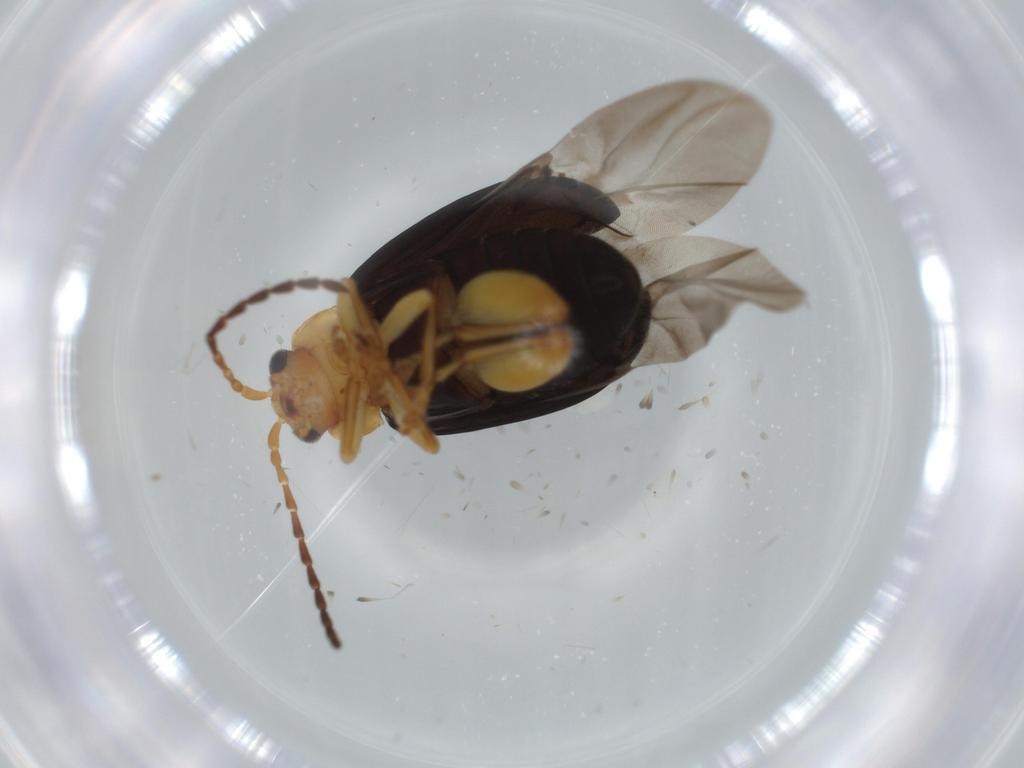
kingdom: Animalia
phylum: Arthropoda
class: Insecta
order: Coleoptera
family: Chrysomelidae
